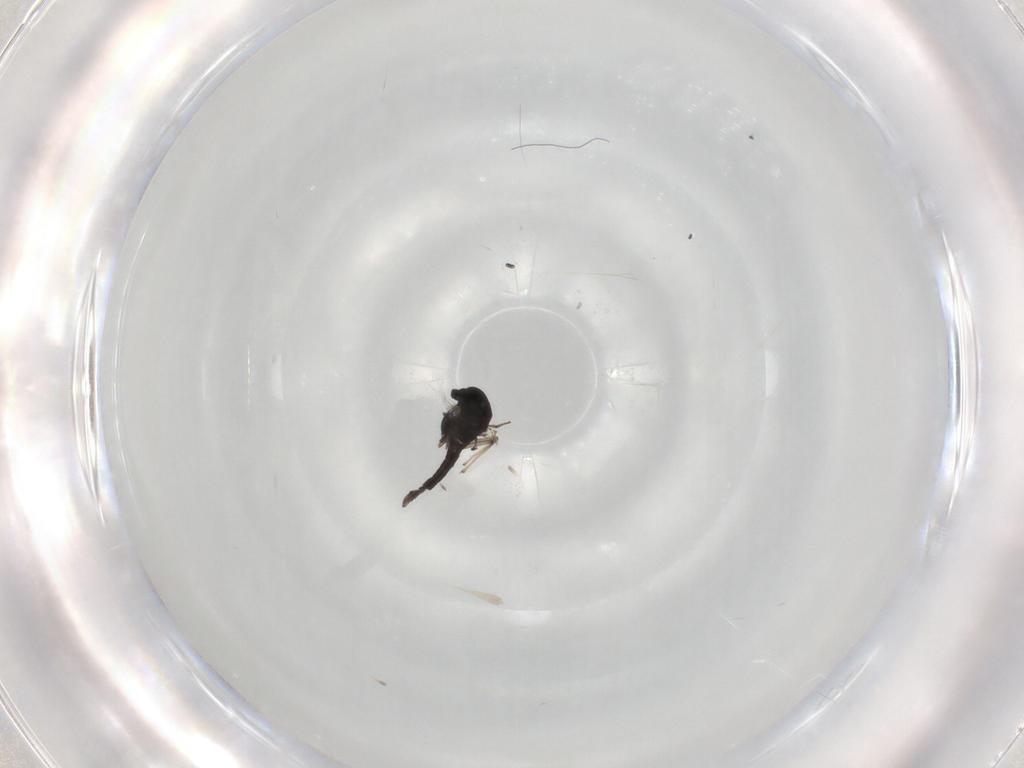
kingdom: Animalia
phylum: Arthropoda
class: Insecta
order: Diptera
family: Chironomidae
